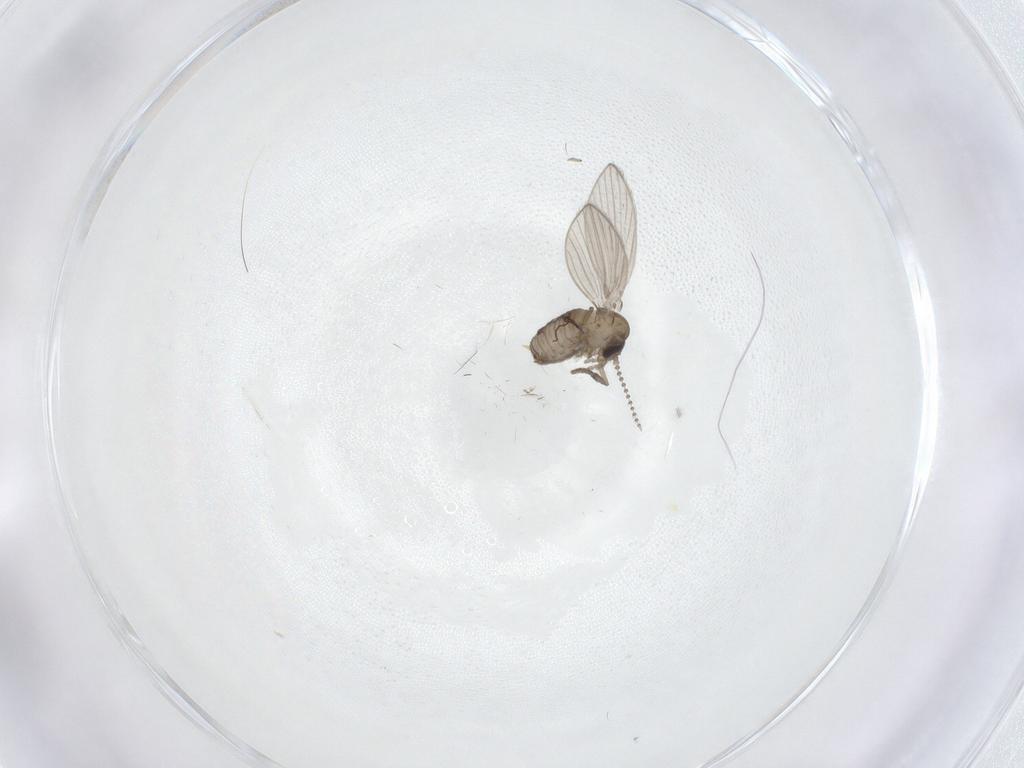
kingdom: Animalia
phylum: Arthropoda
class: Insecta
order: Diptera
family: Psychodidae
